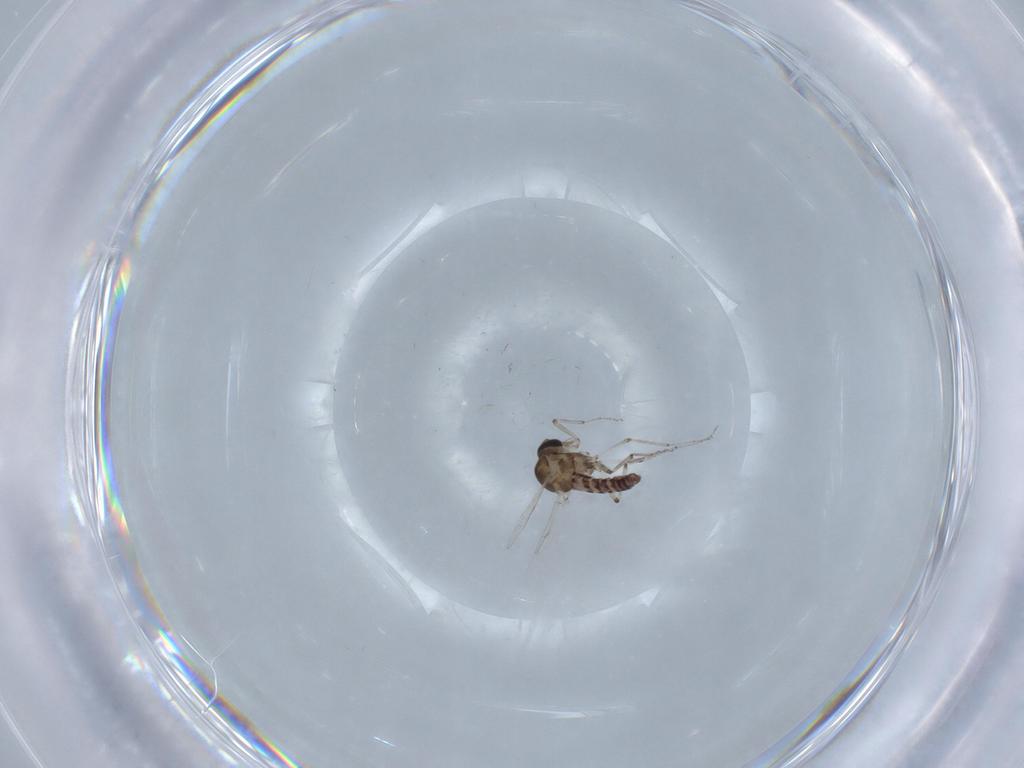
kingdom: Animalia
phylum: Arthropoda
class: Insecta
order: Diptera
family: Ceratopogonidae
